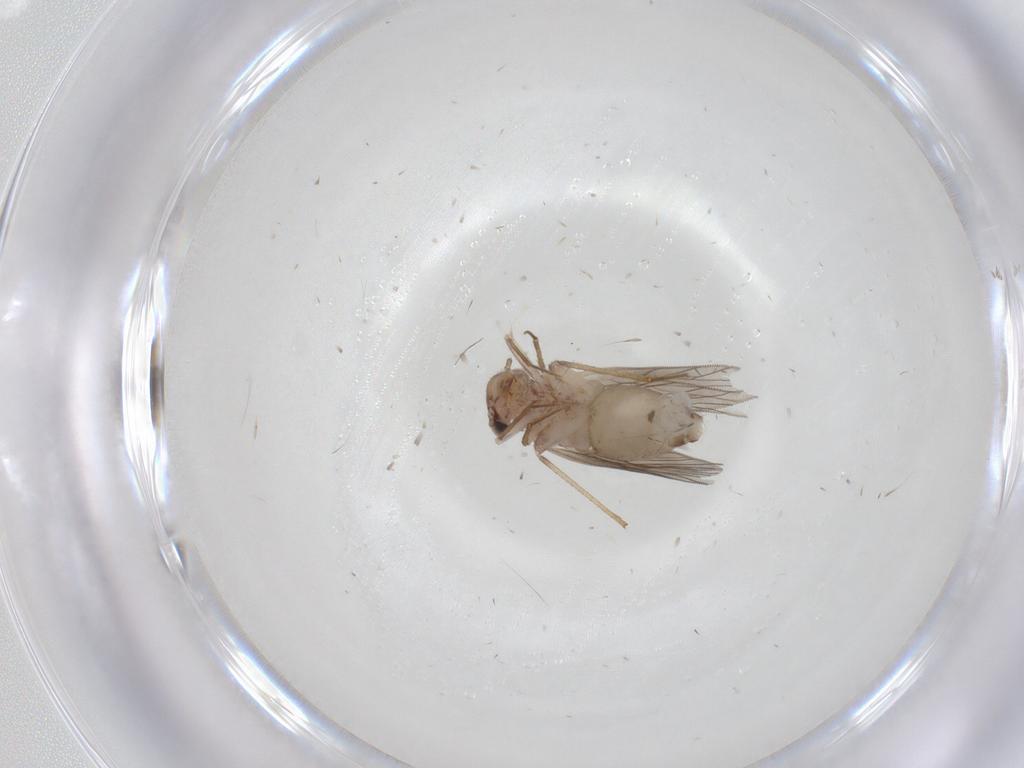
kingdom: Animalia
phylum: Arthropoda
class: Insecta
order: Psocodea
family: Lepidopsocidae
